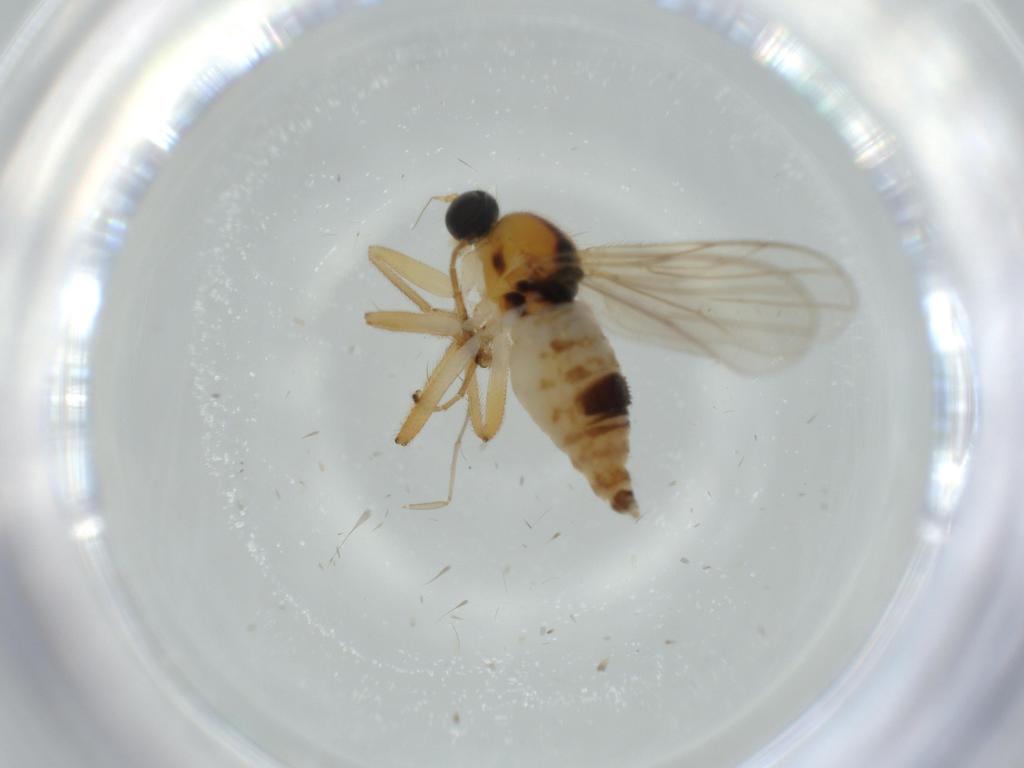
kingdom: Animalia
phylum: Arthropoda
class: Insecta
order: Diptera
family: Hybotidae
